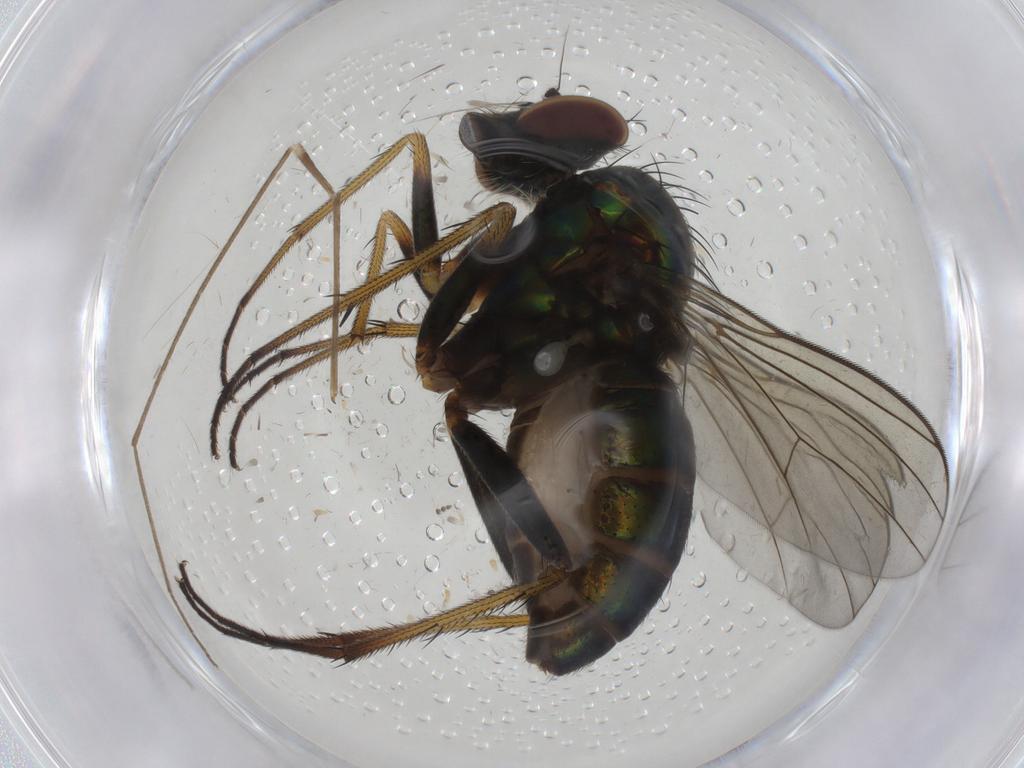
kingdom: Animalia
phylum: Arthropoda
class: Insecta
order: Diptera
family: Dolichopodidae
